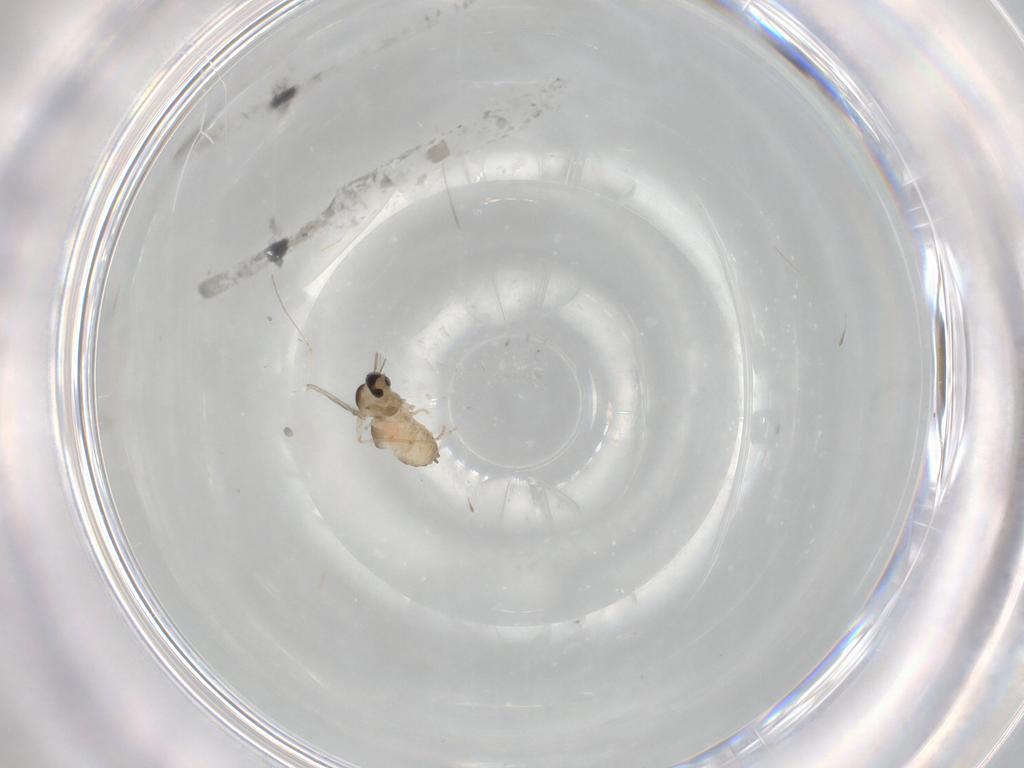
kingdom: Animalia
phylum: Arthropoda
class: Insecta
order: Diptera
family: Cecidomyiidae
